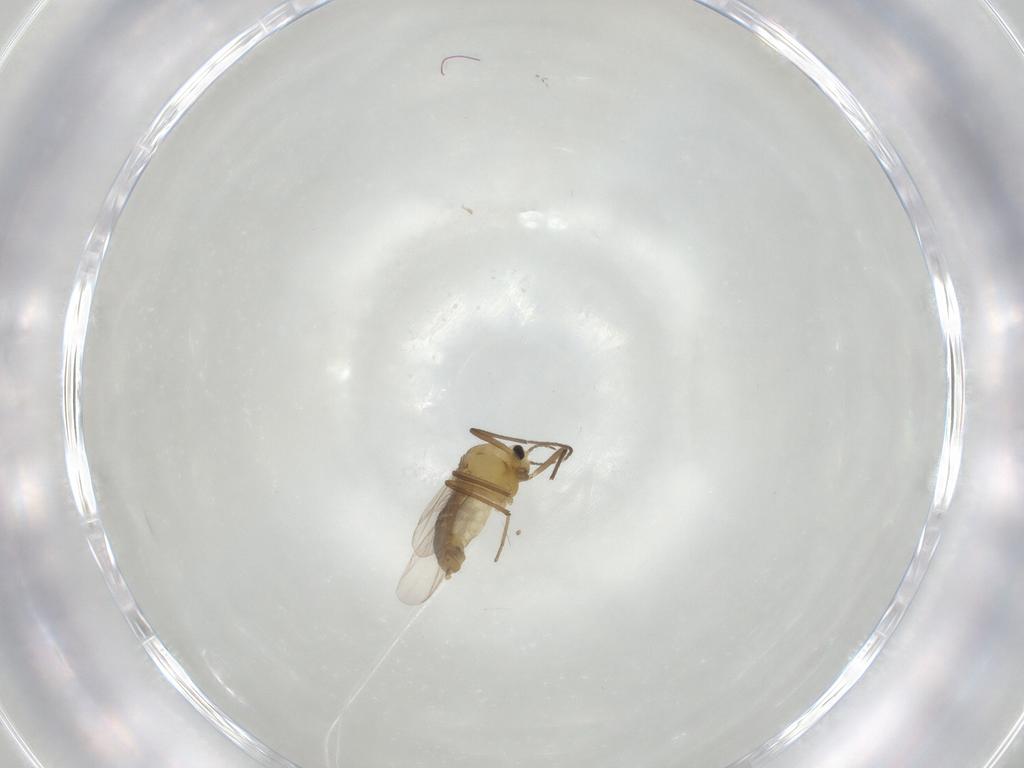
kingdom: Animalia
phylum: Arthropoda
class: Insecta
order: Diptera
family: Chironomidae
